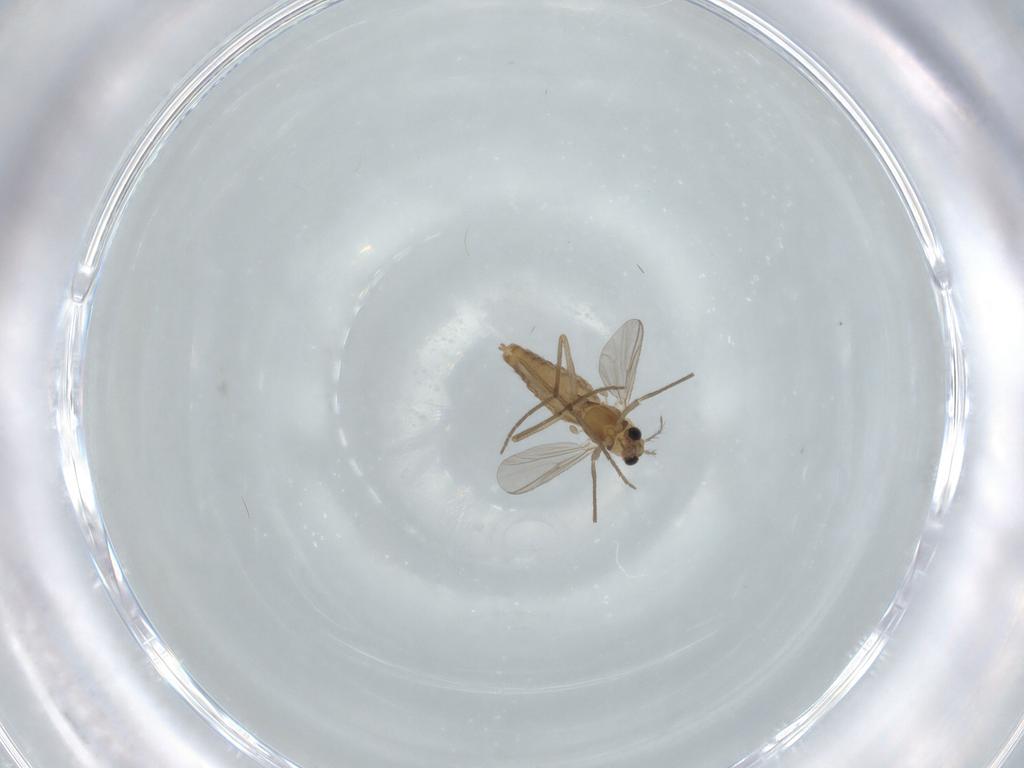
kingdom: Animalia
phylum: Arthropoda
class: Insecta
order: Diptera
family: Chironomidae
